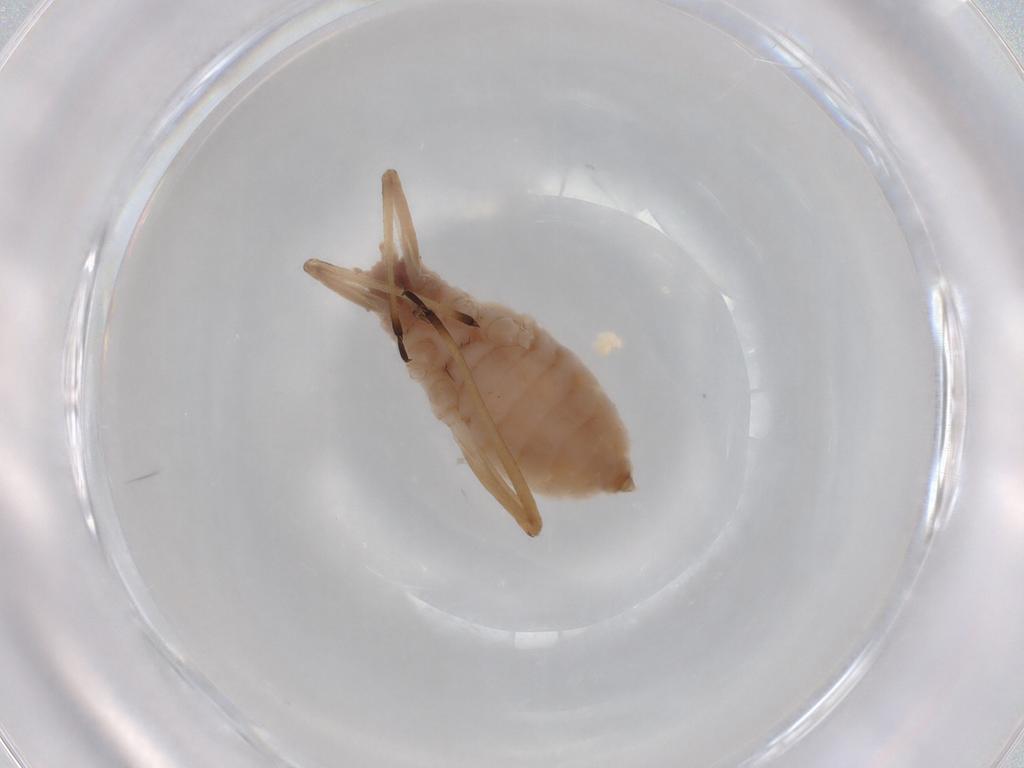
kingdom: Animalia
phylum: Arthropoda
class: Insecta
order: Hemiptera
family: Aphididae
